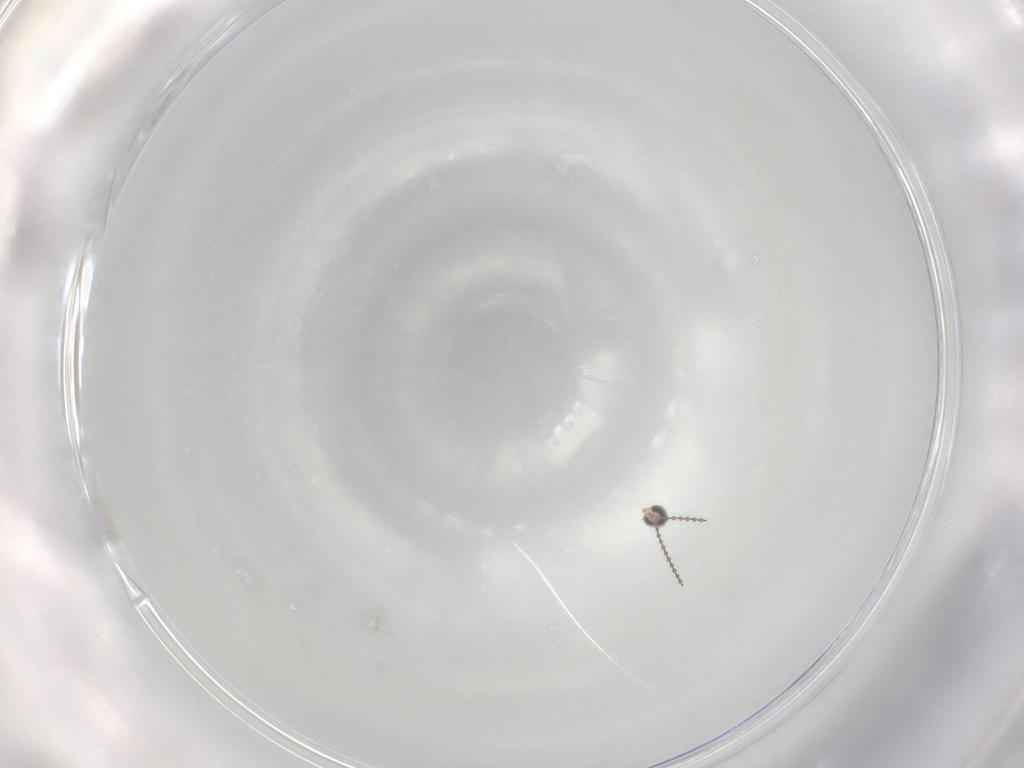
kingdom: Animalia
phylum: Arthropoda
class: Insecta
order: Diptera
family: Cecidomyiidae
